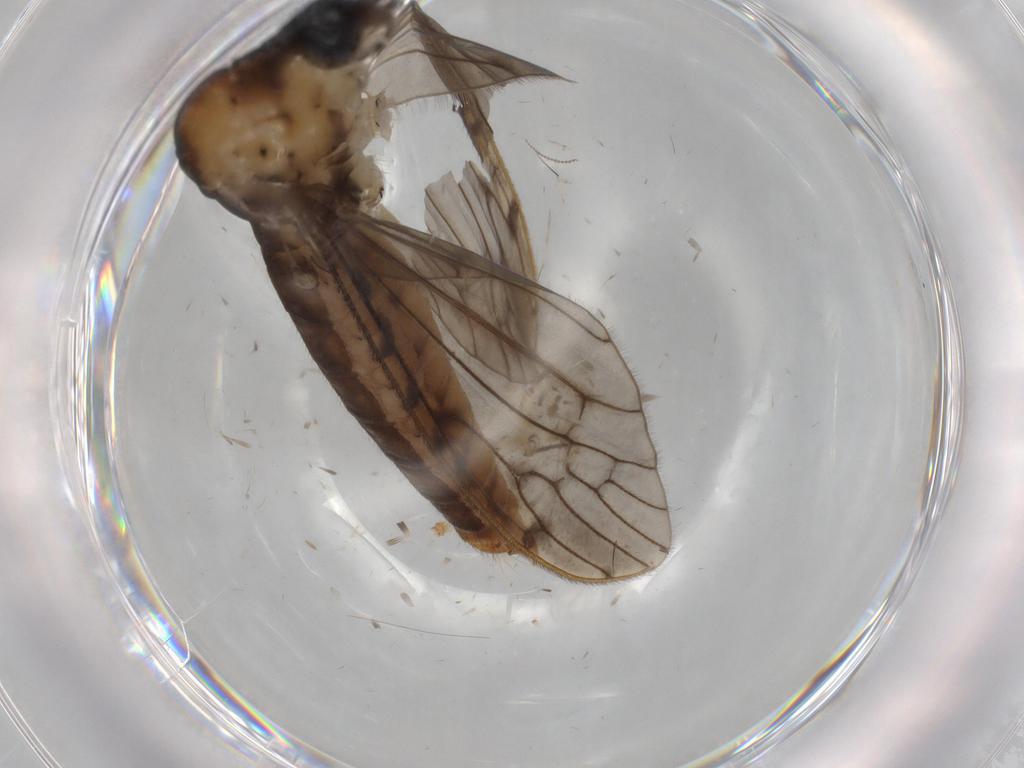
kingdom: Animalia
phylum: Arthropoda
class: Insecta
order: Diptera
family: Limoniidae
